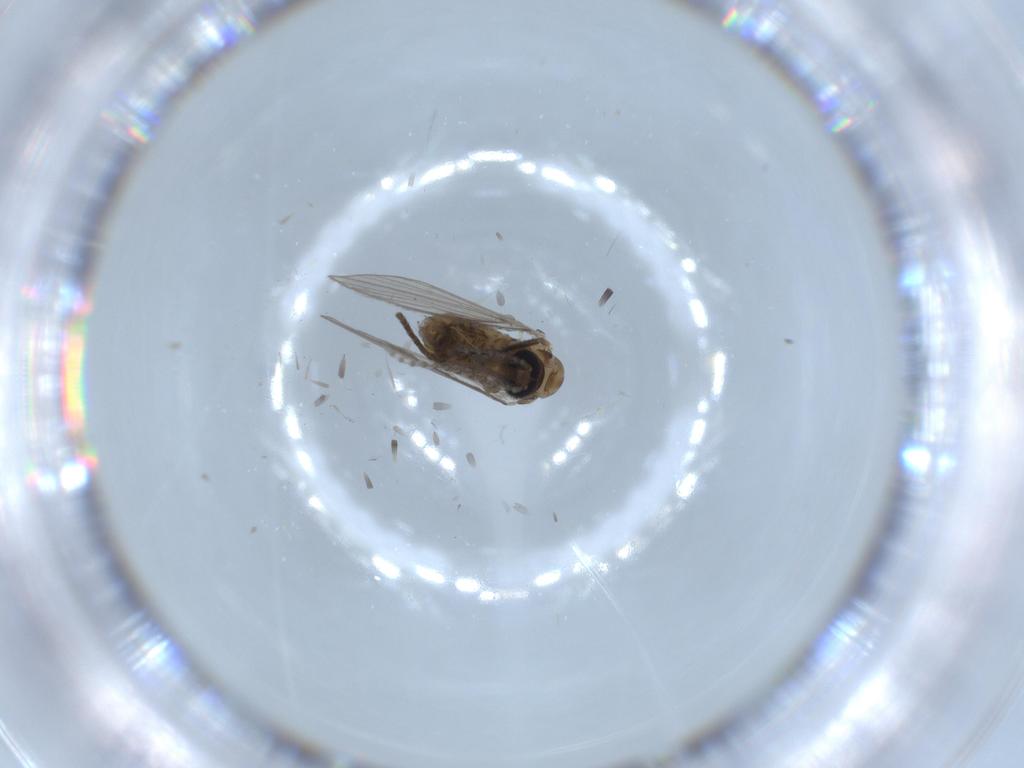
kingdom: Animalia
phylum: Arthropoda
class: Insecta
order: Diptera
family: Psychodidae
